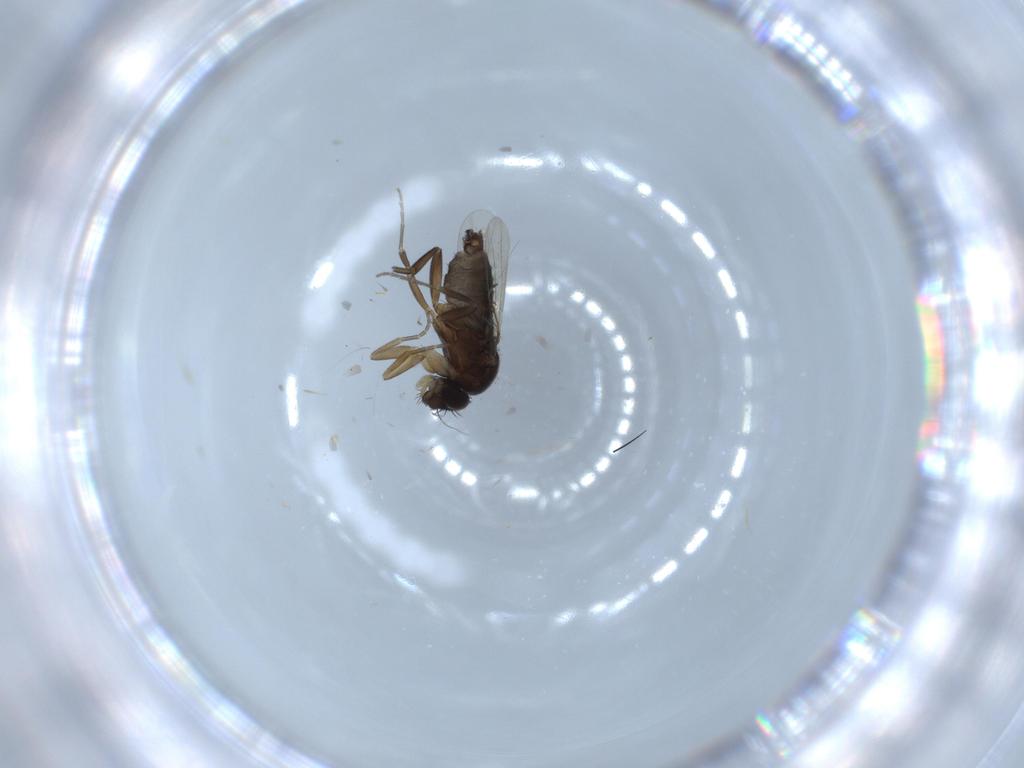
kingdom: Animalia
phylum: Arthropoda
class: Insecta
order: Diptera
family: Phoridae
